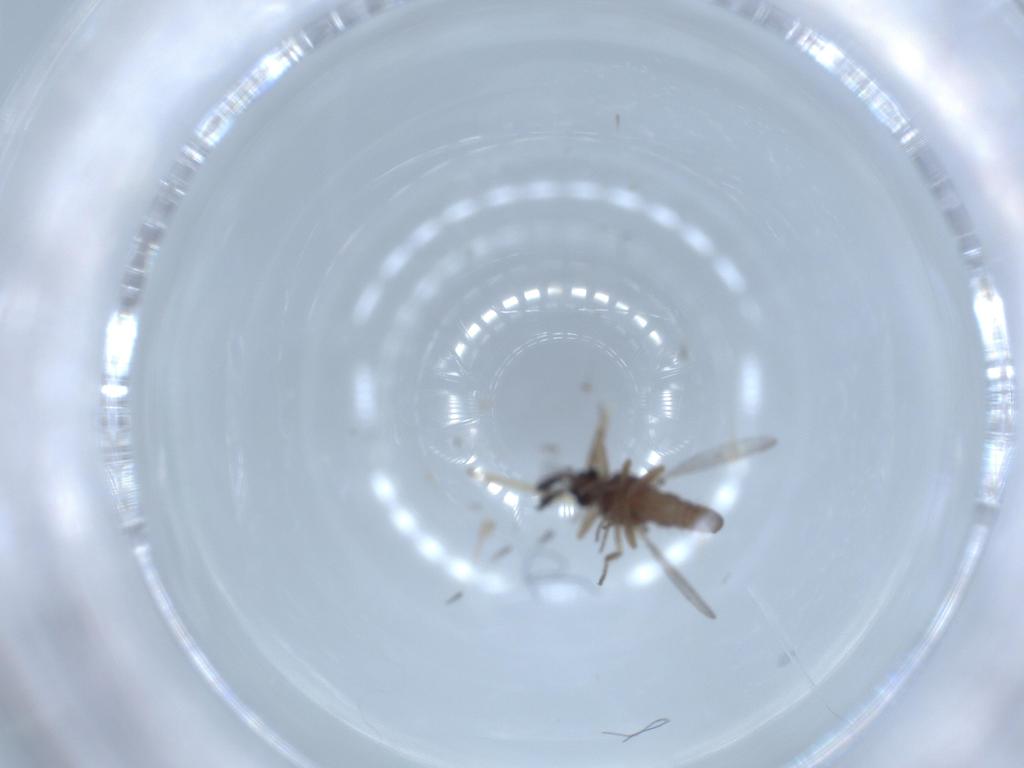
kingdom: Animalia
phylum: Arthropoda
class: Insecta
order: Diptera
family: Ceratopogonidae
